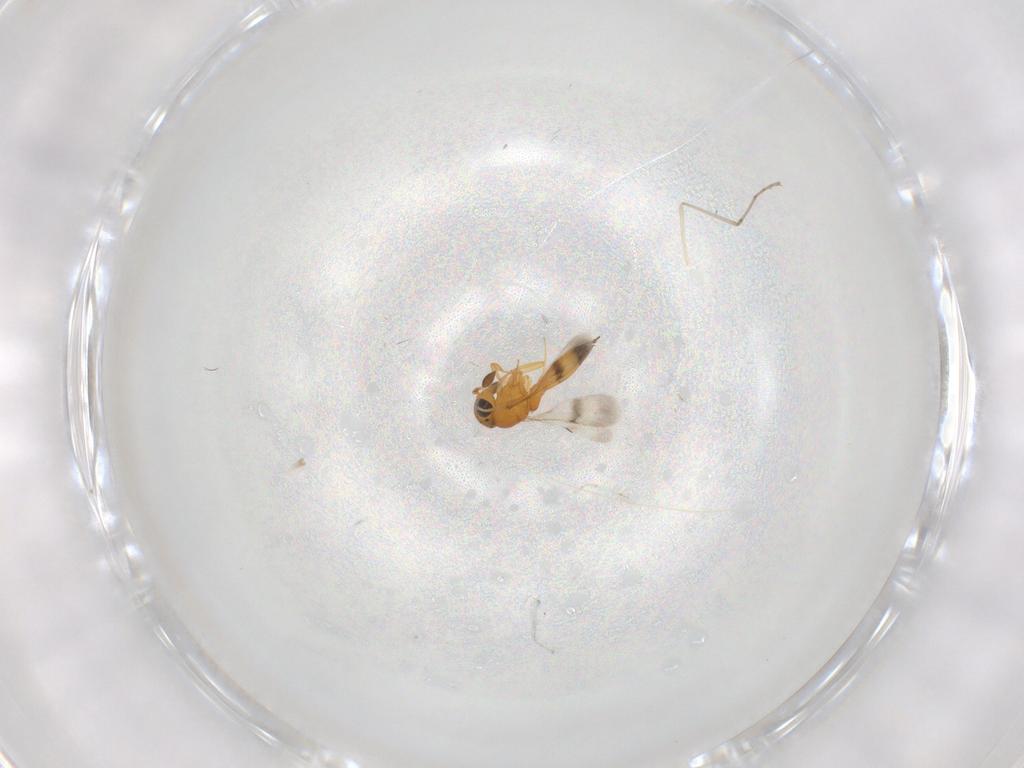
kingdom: Animalia
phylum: Arthropoda
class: Insecta
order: Hymenoptera
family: Scelionidae
